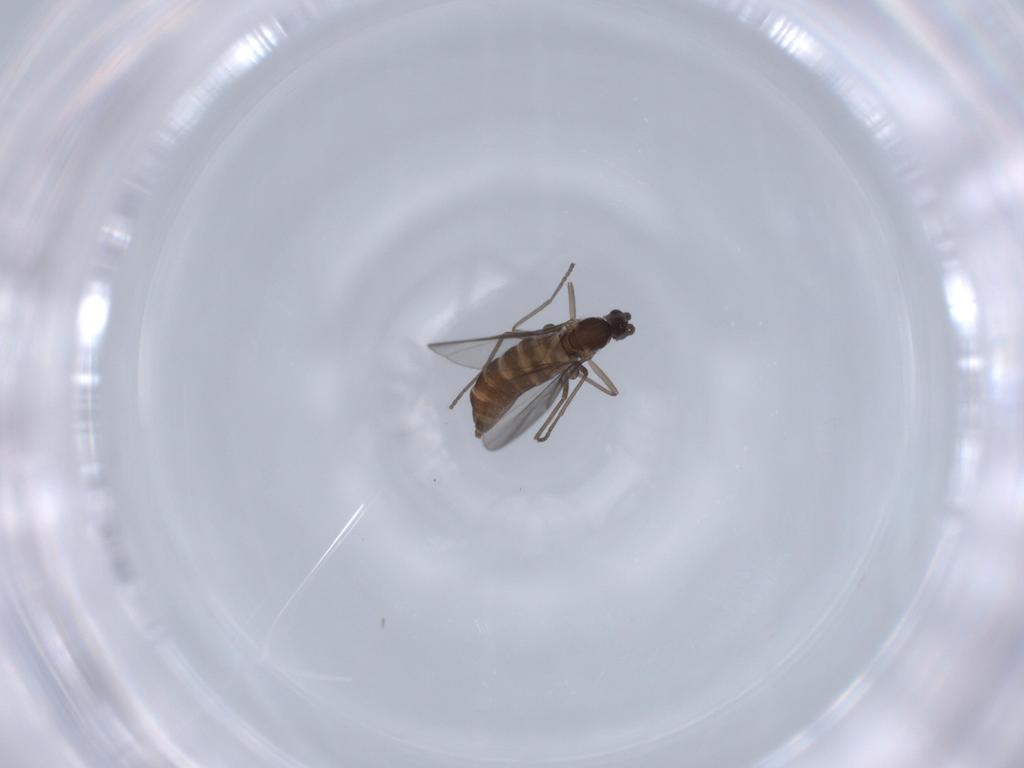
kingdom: Animalia
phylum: Arthropoda
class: Insecta
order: Diptera
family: Cecidomyiidae
